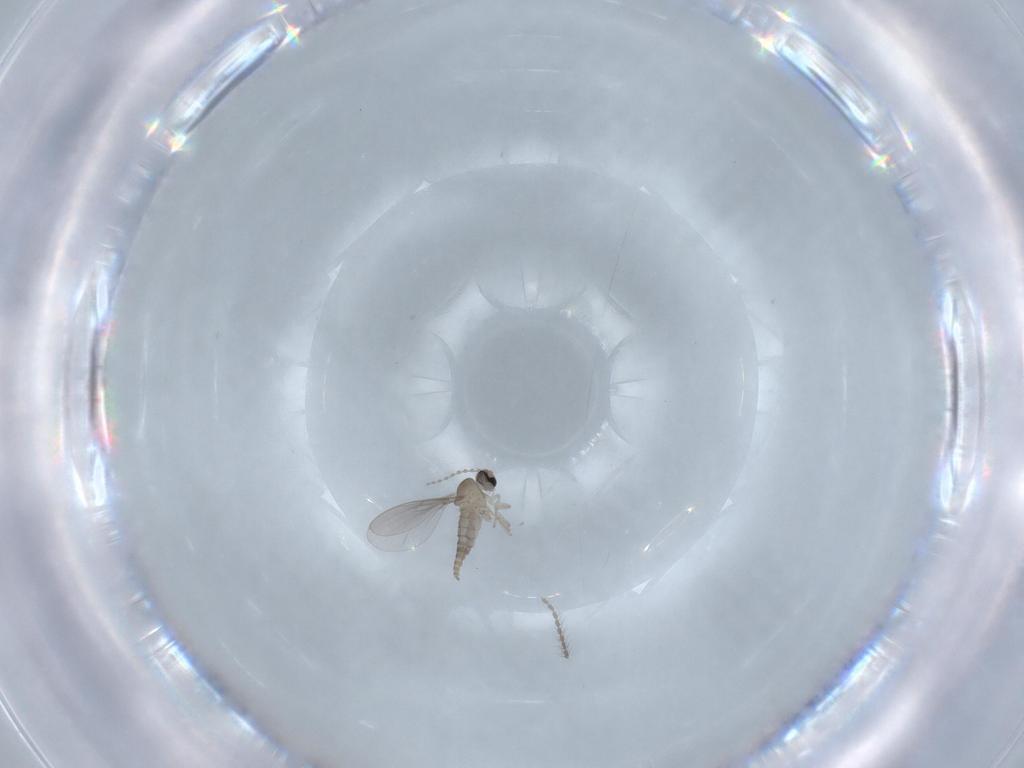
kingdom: Animalia
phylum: Arthropoda
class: Insecta
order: Diptera
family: Cecidomyiidae
